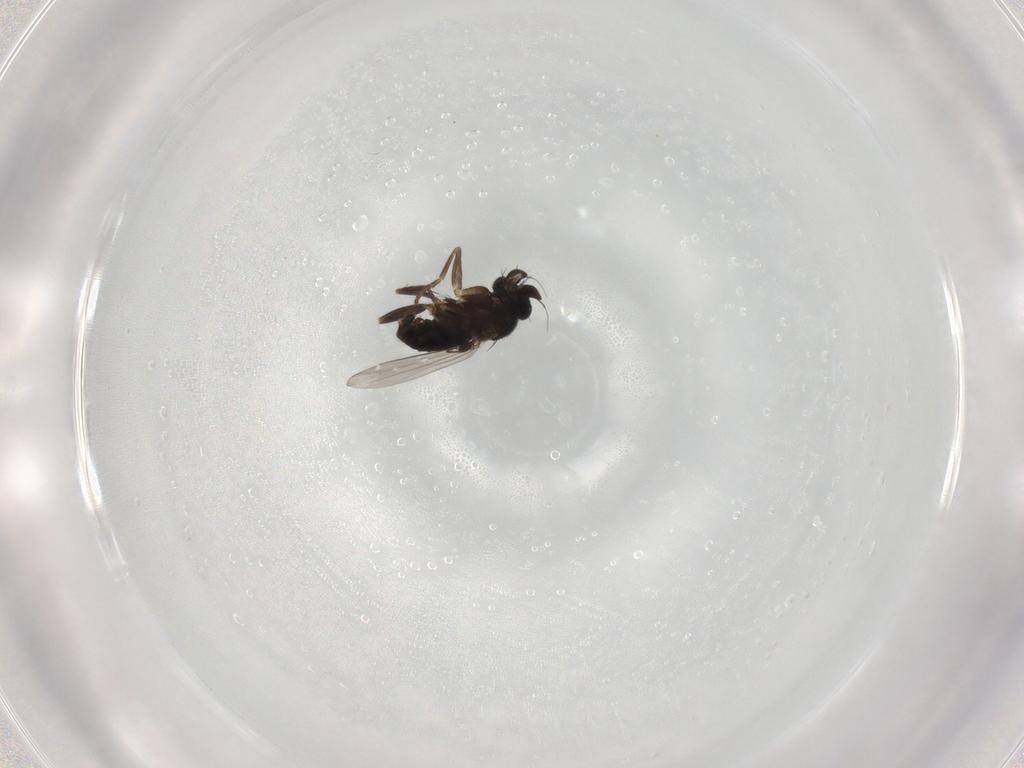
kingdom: Animalia
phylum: Arthropoda
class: Insecta
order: Diptera
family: Phoridae
